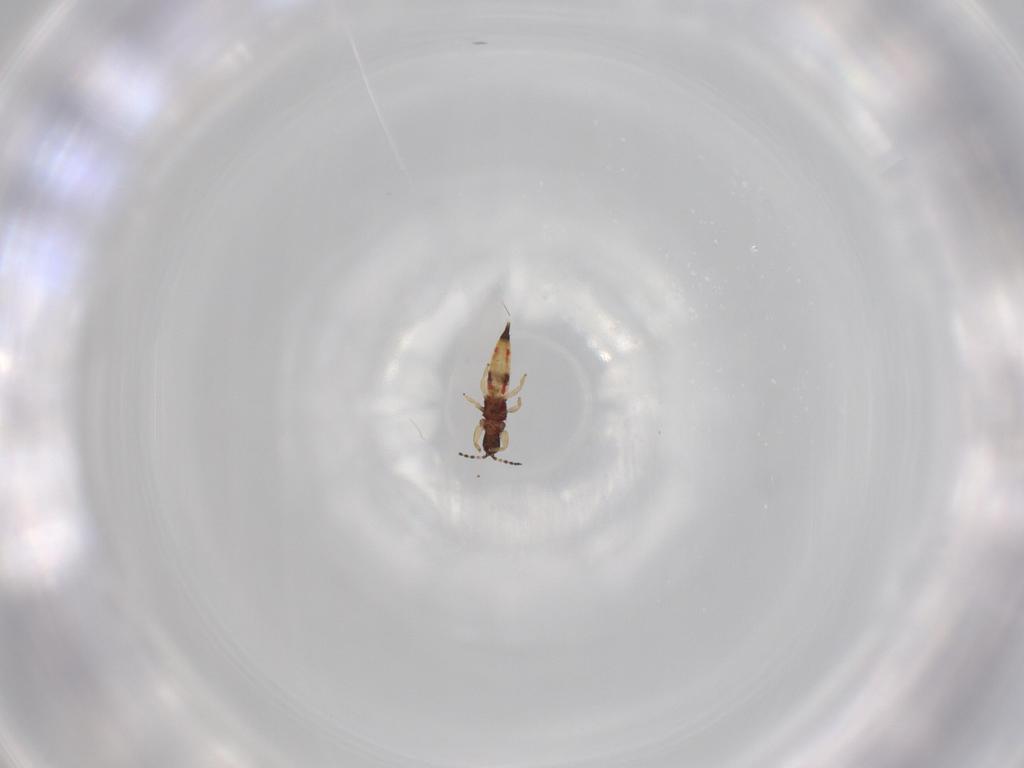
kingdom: Animalia
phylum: Arthropoda
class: Insecta
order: Thysanoptera
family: Phlaeothripidae
